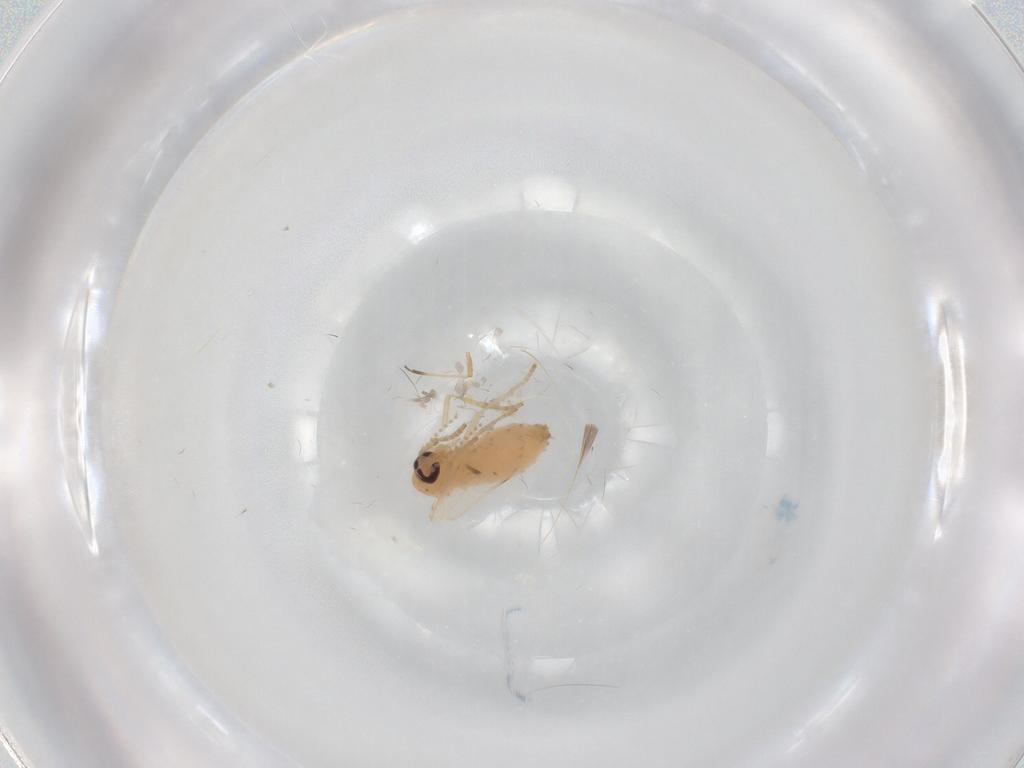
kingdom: Animalia
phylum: Arthropoda
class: Insecta
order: Diptera
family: Psychodidae
